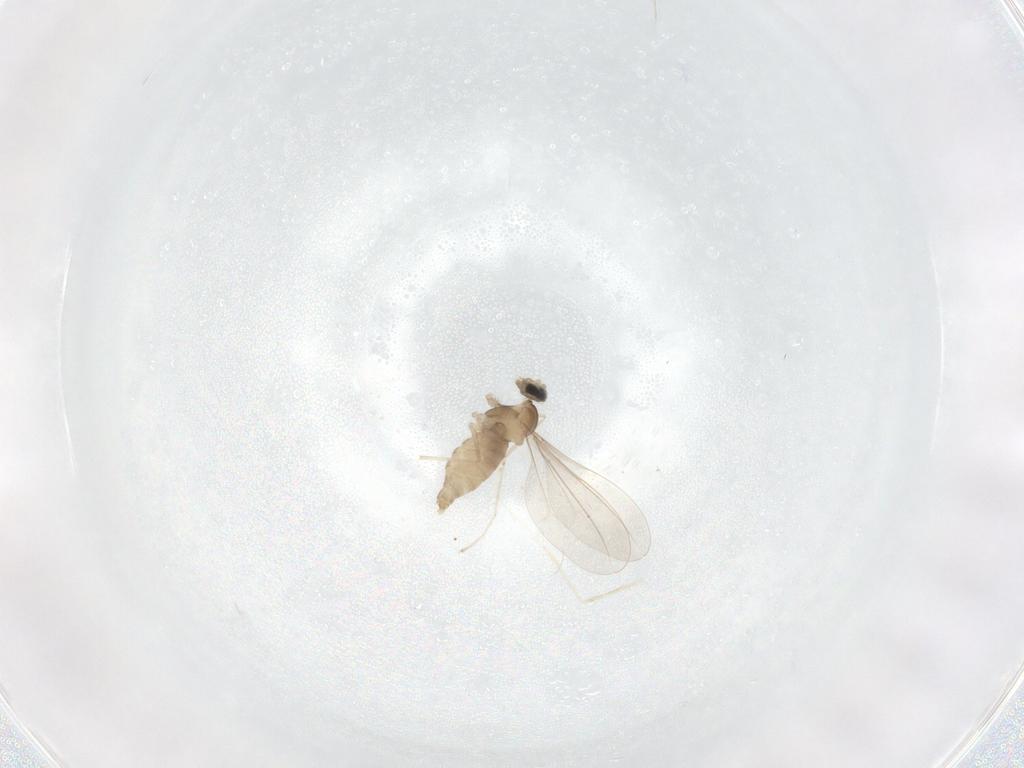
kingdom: Animalia
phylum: Arthropoda
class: Insecta
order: Diptera
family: Cecidomyiidae
